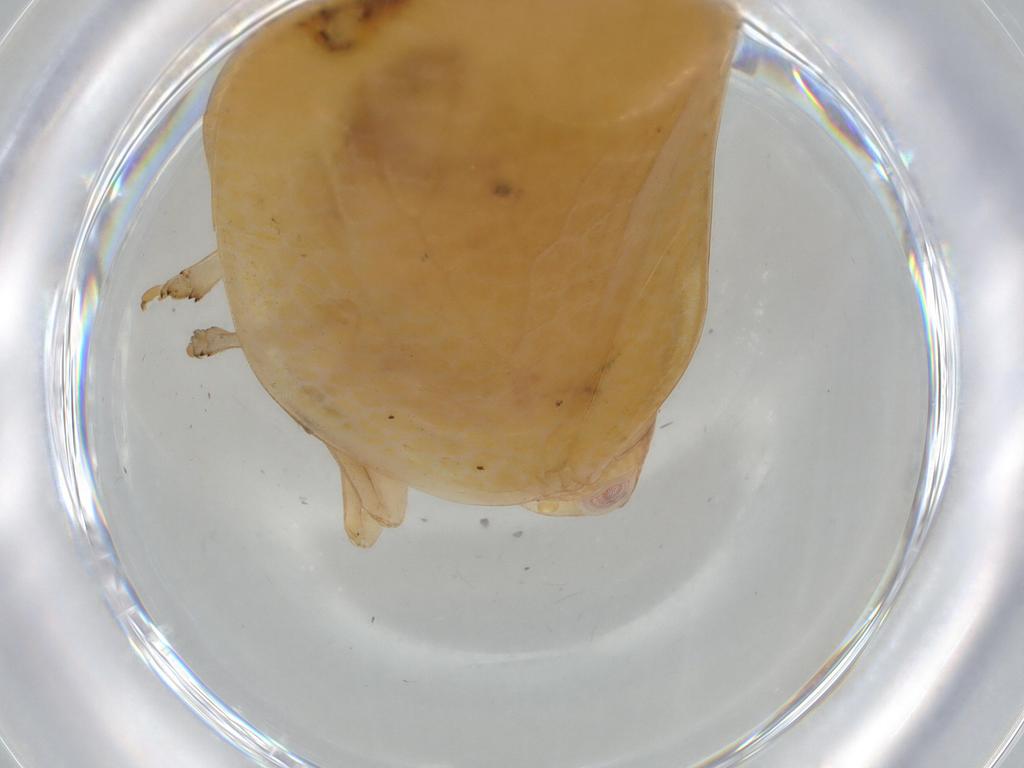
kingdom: Animalia
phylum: Arthropoda
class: Insecta
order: Hemiptera
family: Acanaloniidae
